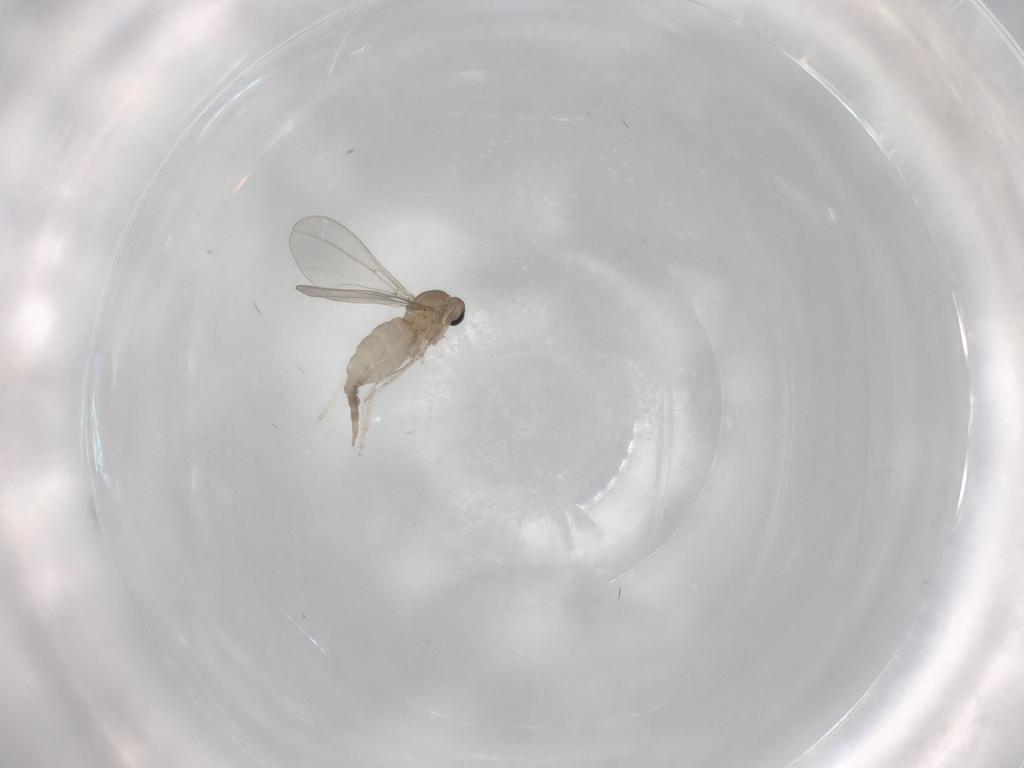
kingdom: Animalia
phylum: Arthropoda
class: Insecta
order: Diptera
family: Cecidomyiidae
